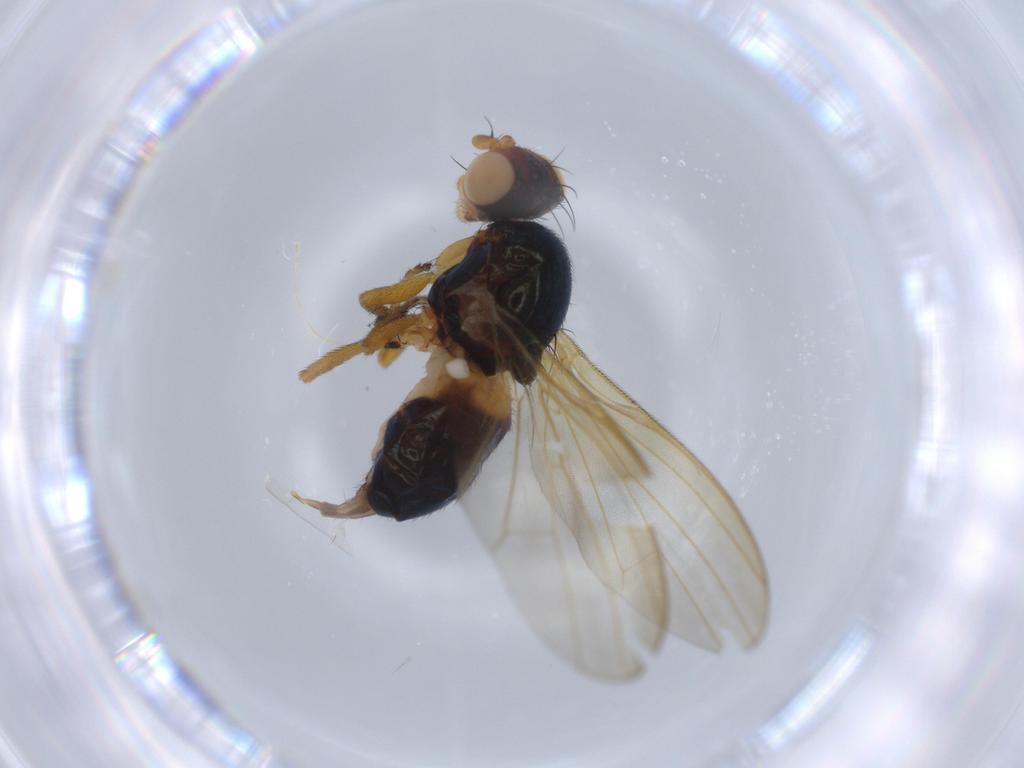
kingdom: Animalia
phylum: Arthropoda
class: Insecta
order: Diptera
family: Piophilidae
